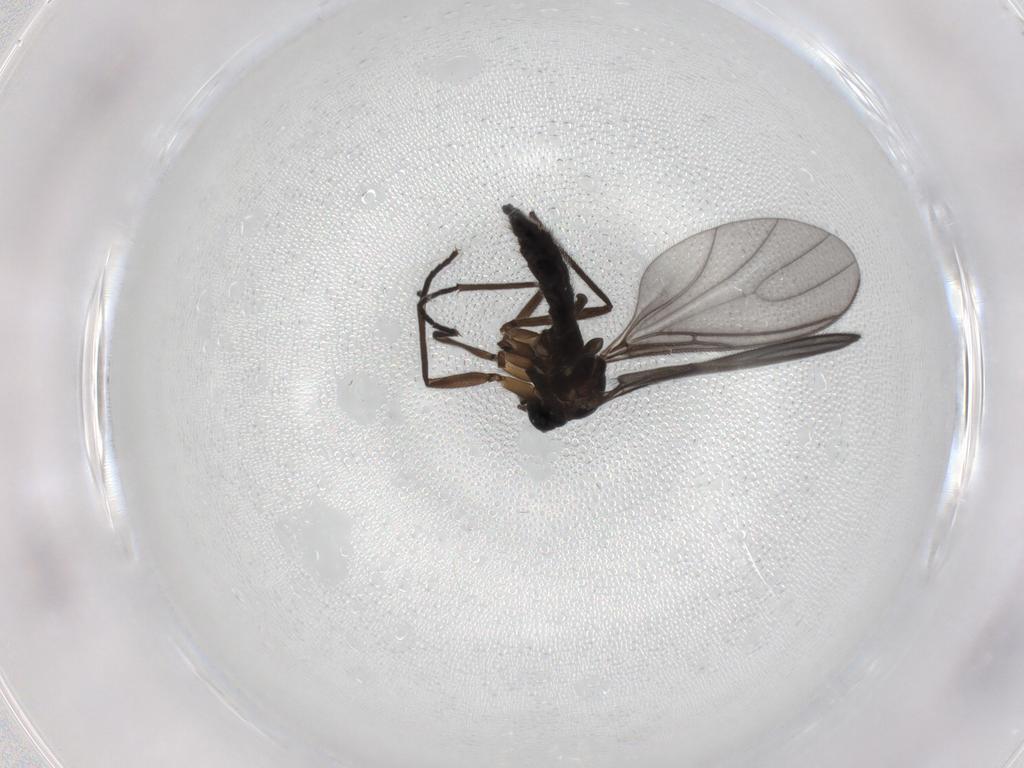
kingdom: Animalia
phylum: Arthropoda
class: Insecta
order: Diptera
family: Sciaridae
